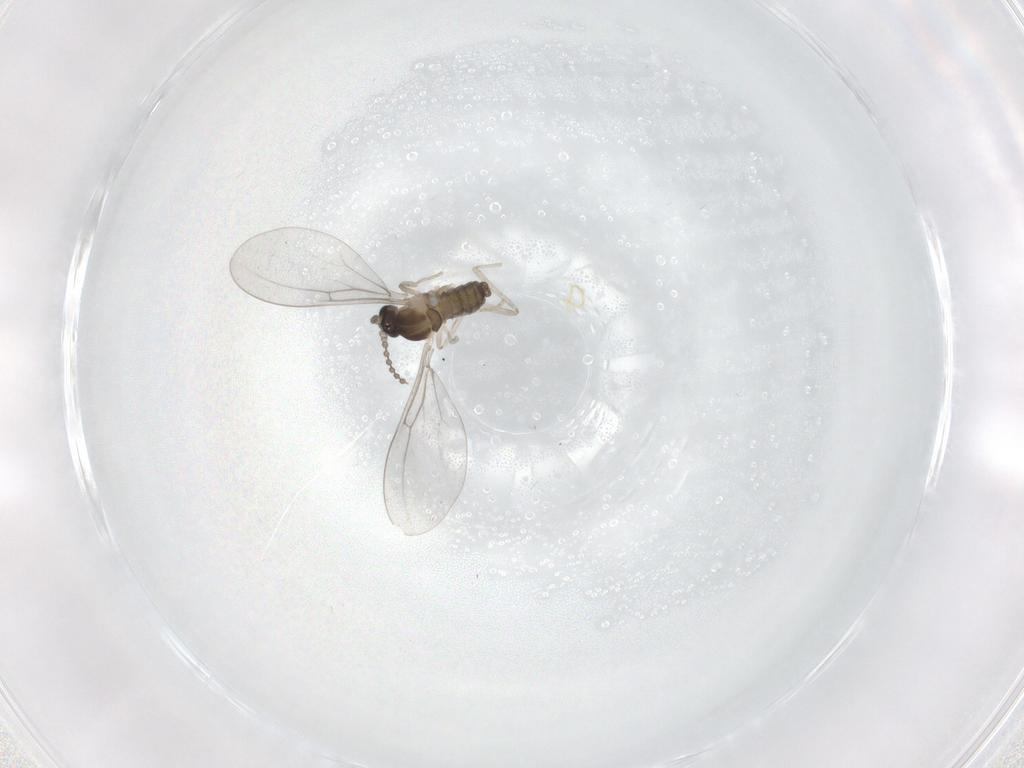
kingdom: Animalia
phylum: Arthropoda
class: Insecta
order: Diptera
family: Cecidomyiidae
